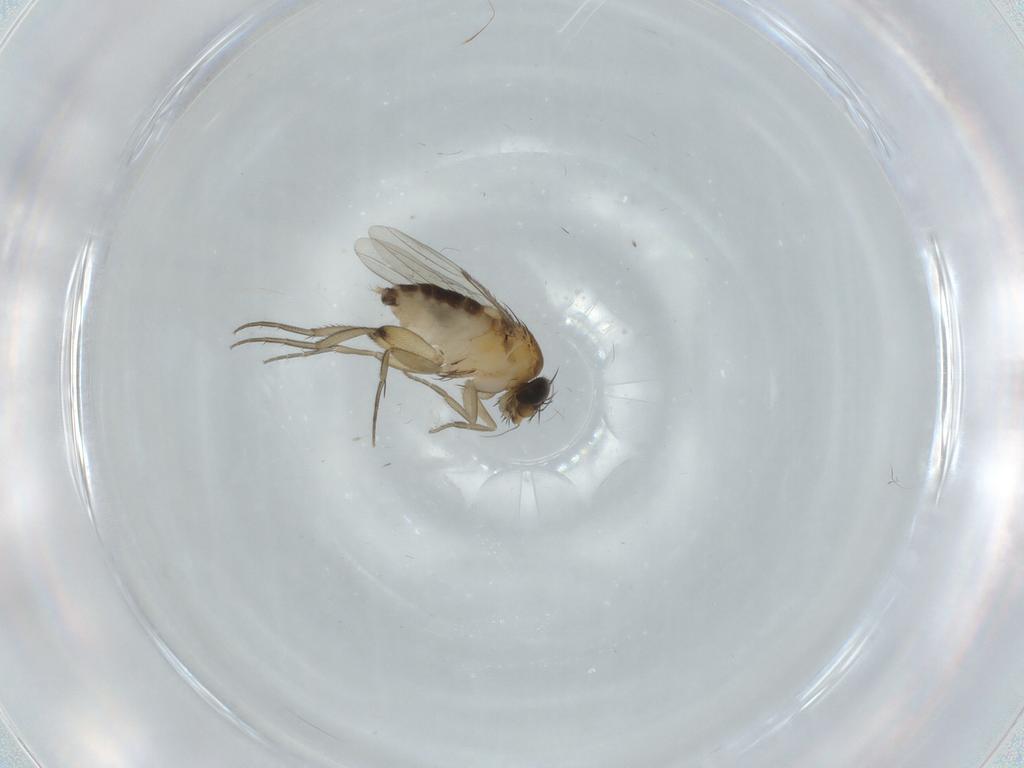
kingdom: Animalia
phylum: Arthropoda
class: Insecta
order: Diptera
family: Phoridae
